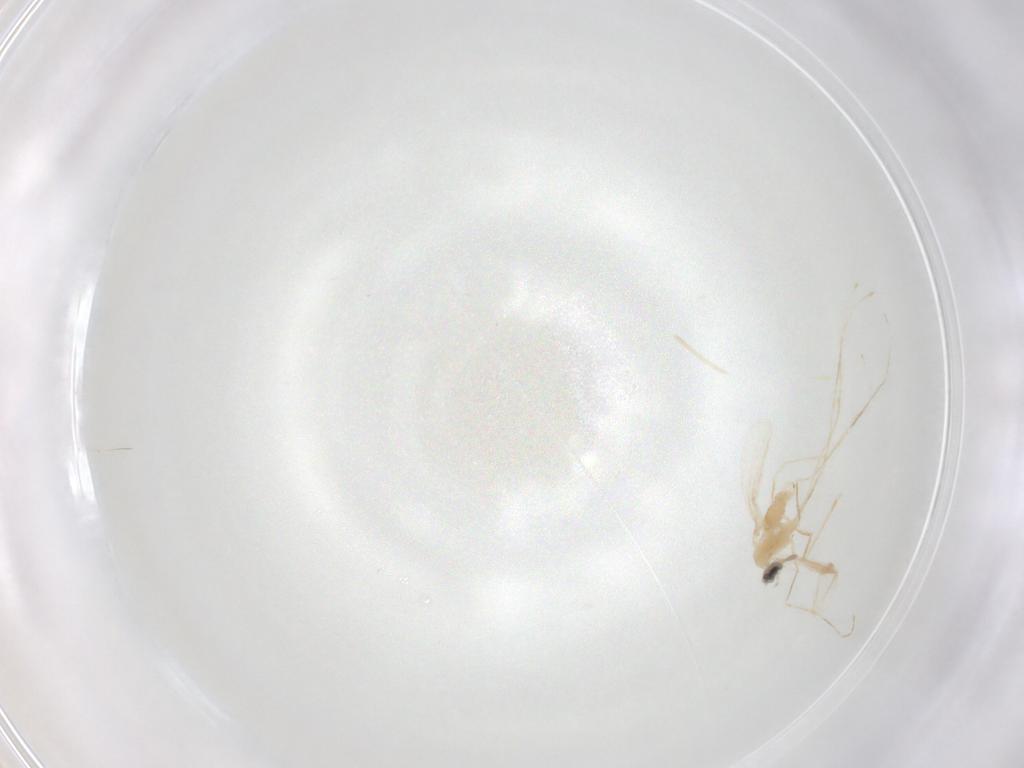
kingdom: Animalia
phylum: Arthropoda
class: Insecta
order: Diptera
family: Cecidomyiidae
